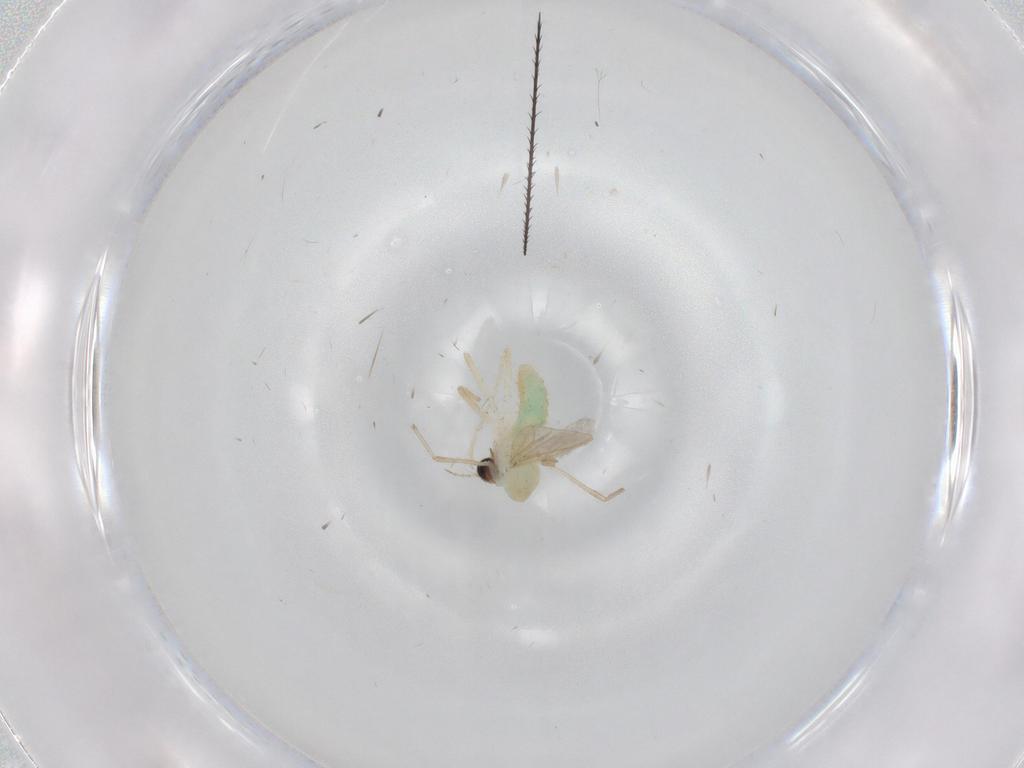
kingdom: Animalia
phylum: Arthropoda
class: Insecta
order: Diptera
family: Chironomidae
